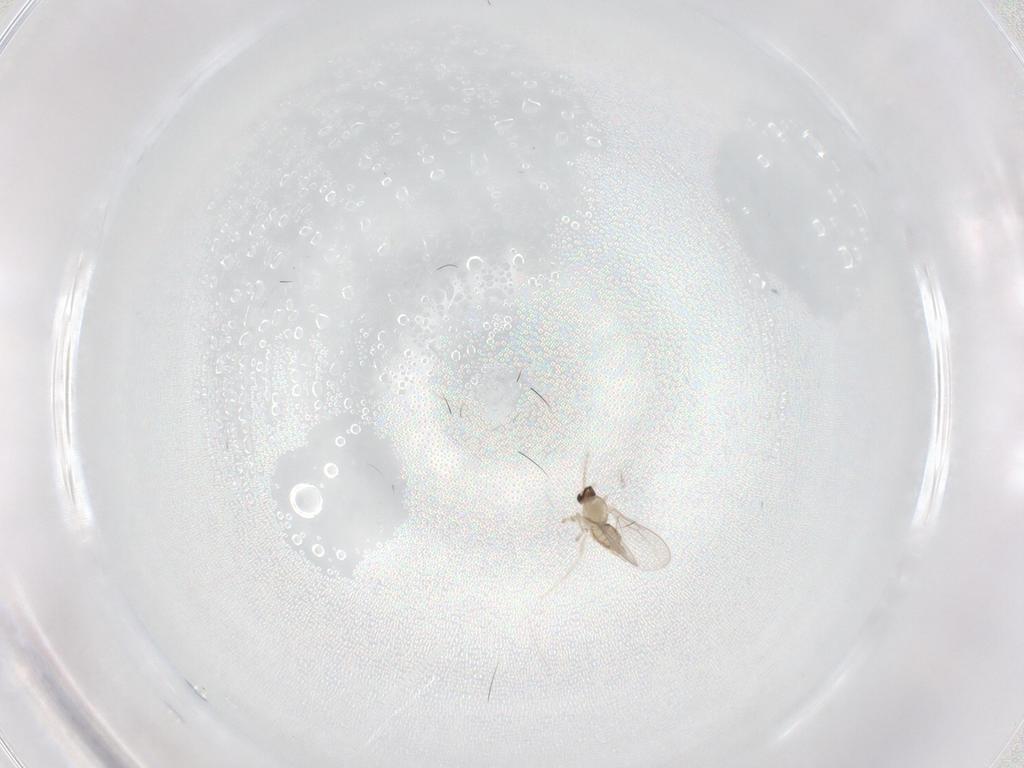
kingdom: Animalia
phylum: Arthropoda
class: Insecta
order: Diptera
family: Cecidomyiidae
